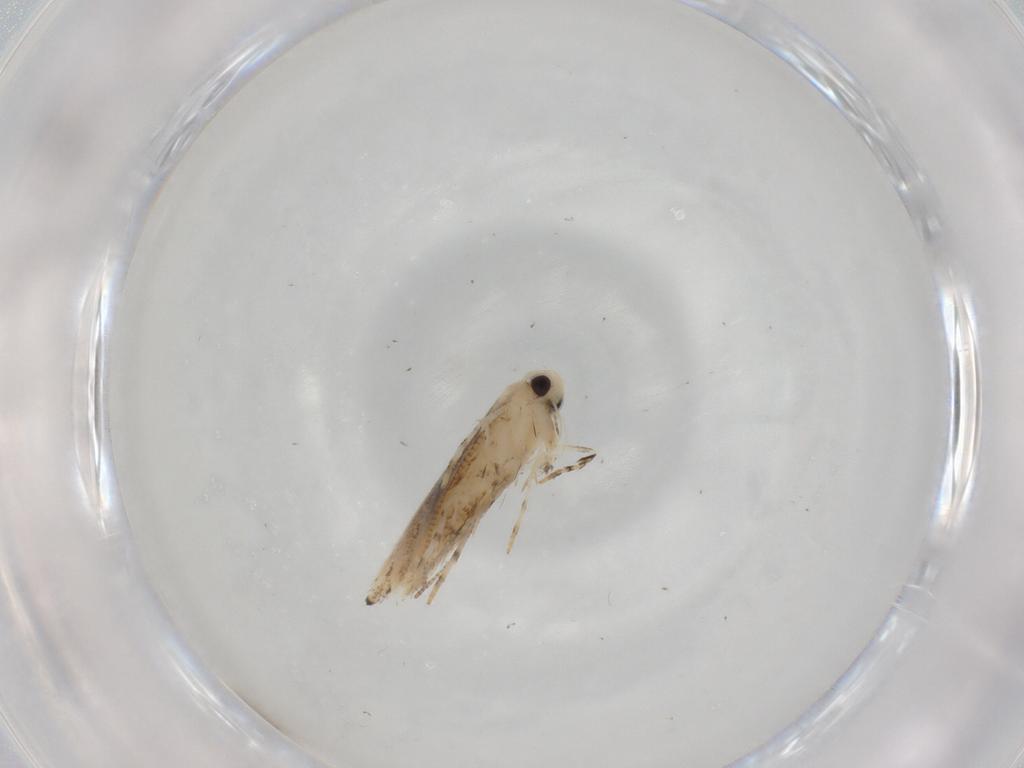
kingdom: Animalia
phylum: Arthropoda
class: Insecta
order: Lepidoptera
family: Gracillariidae
